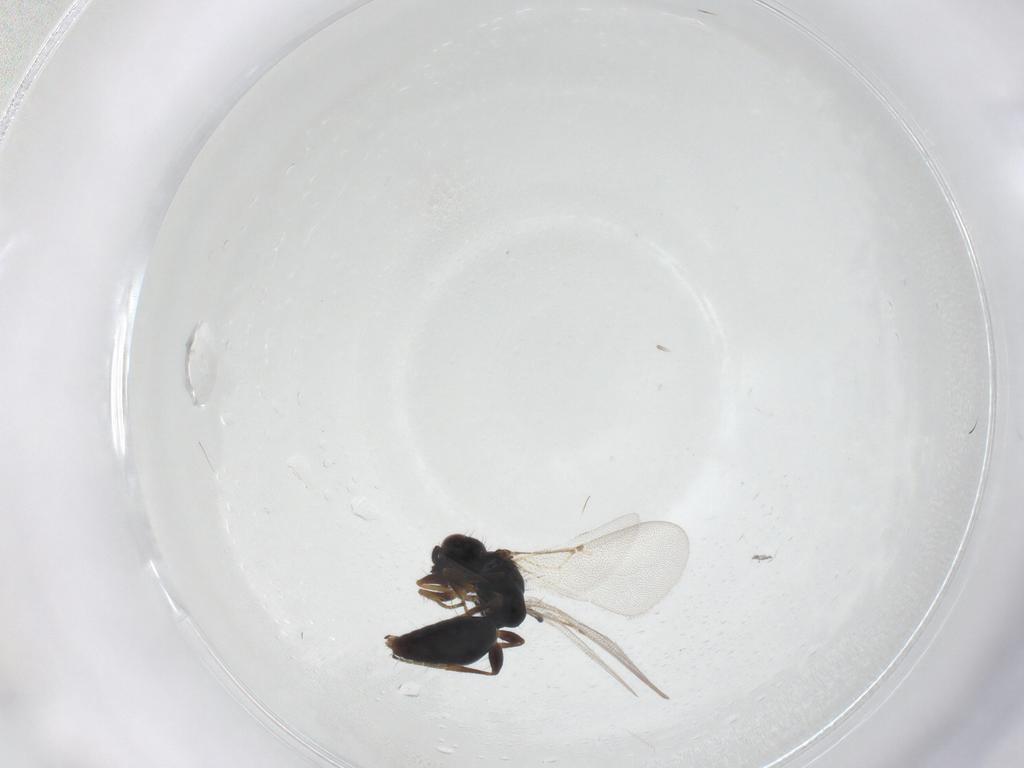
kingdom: Animalia
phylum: Arthropoda
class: Insecta
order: Hymenoptera
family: Bethylidae
